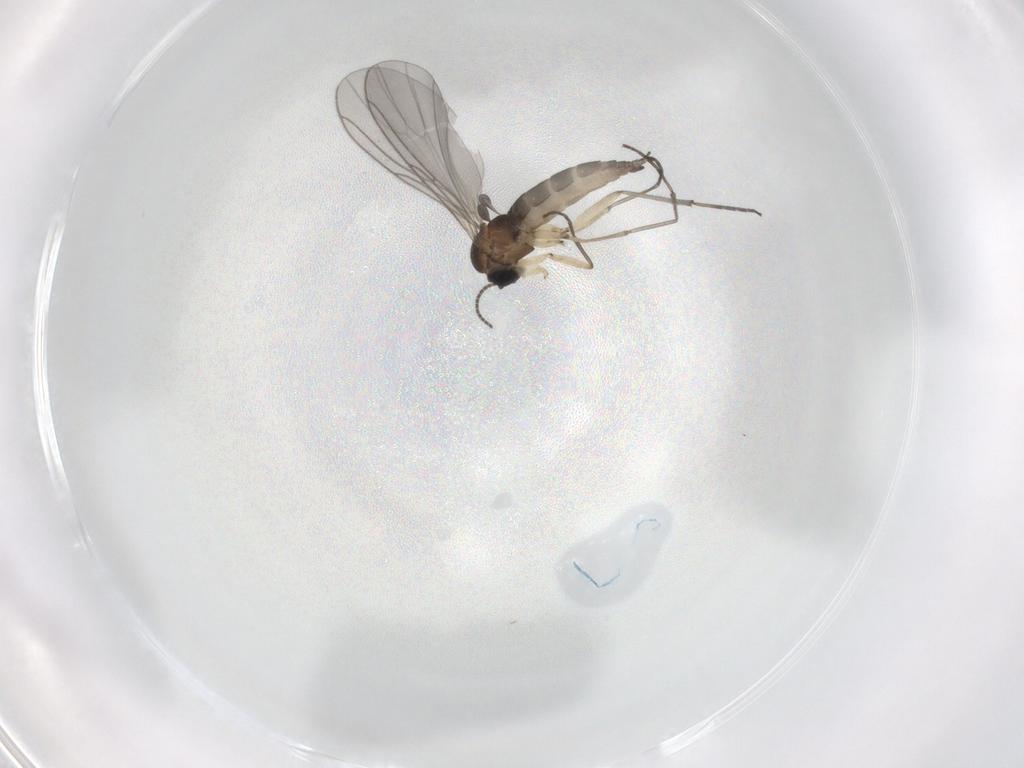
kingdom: Animalia
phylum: Arthropoda
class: Insecta
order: Diptera
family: Sciaridae
